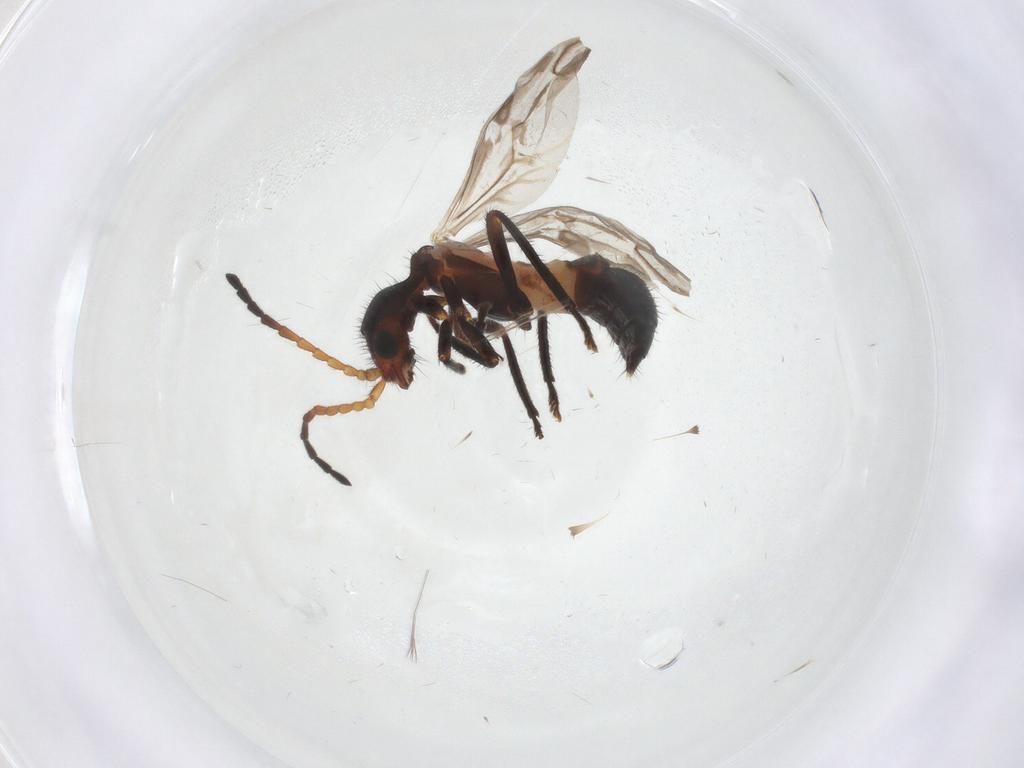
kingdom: Animalia
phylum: Arthropoda
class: Insecta
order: Coleoptera
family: Melyridae
